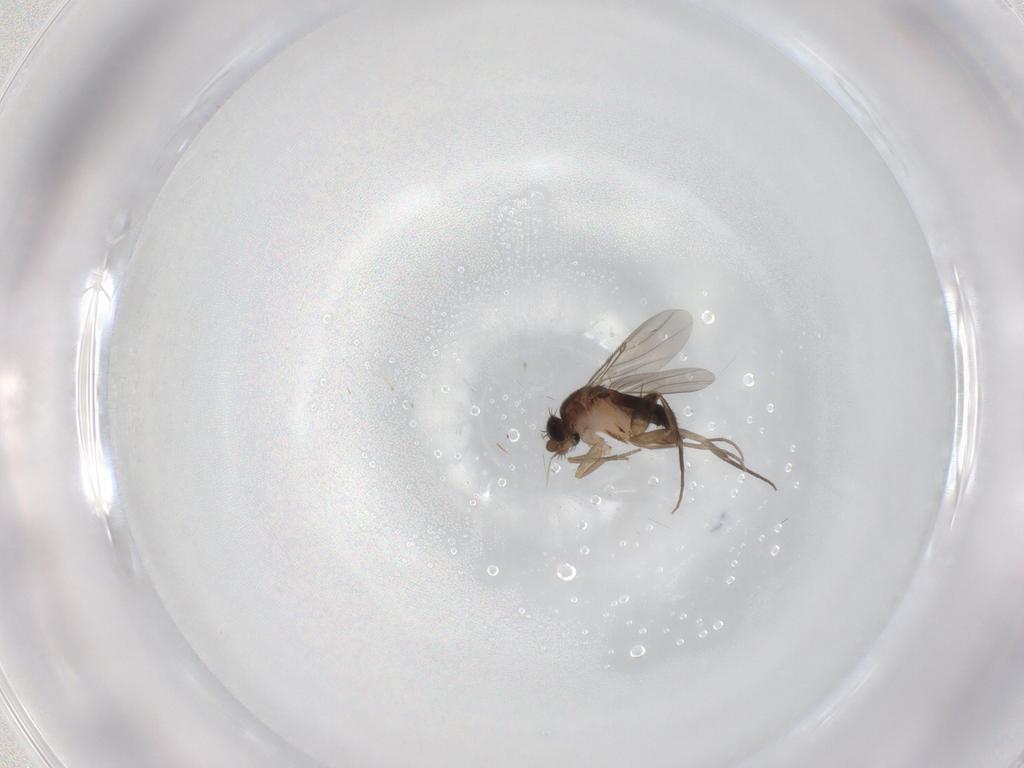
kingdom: Animalia
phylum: Arthropoda
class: Insecta
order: Diptera
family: Phoridae
